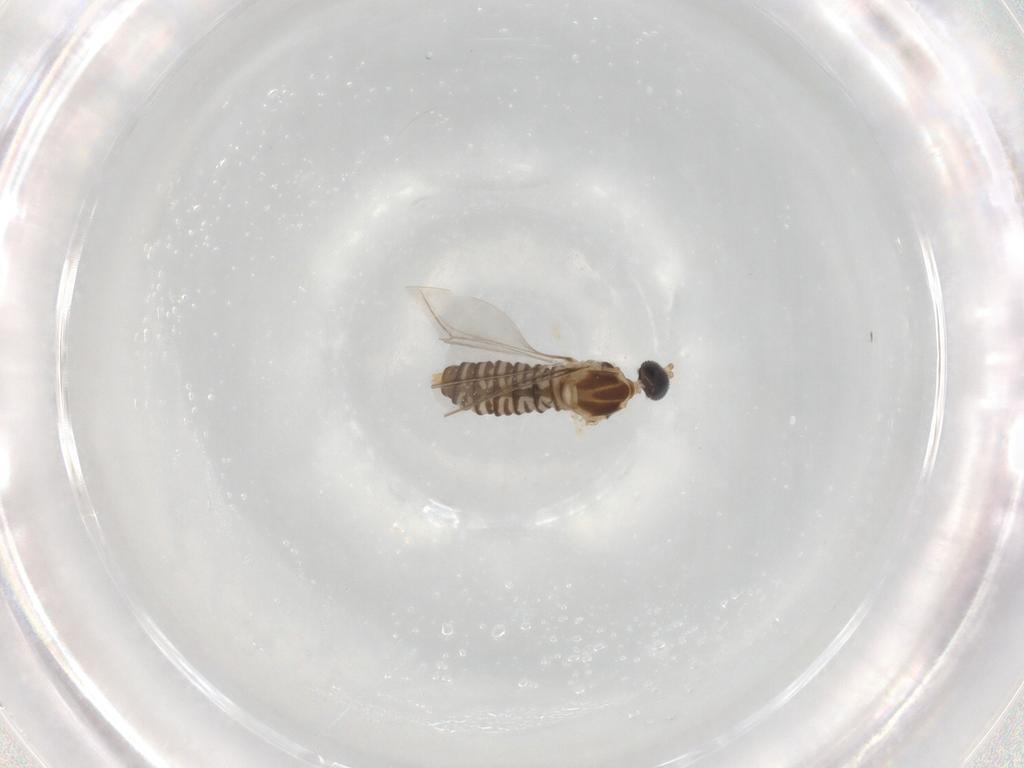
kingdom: Animalia
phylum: Arthropoda
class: Insecta
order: Diptera
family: Cecidomyiidae
